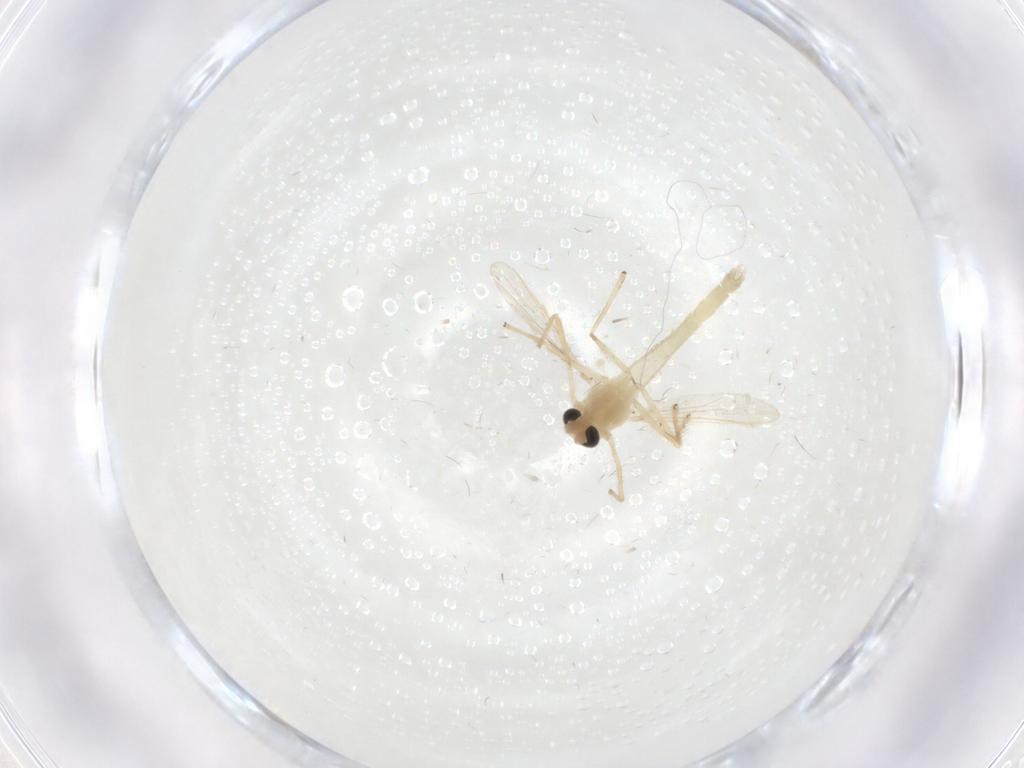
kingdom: Animalia
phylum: Arthropoda
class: Insecta
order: Diptera
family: Chironomidae
